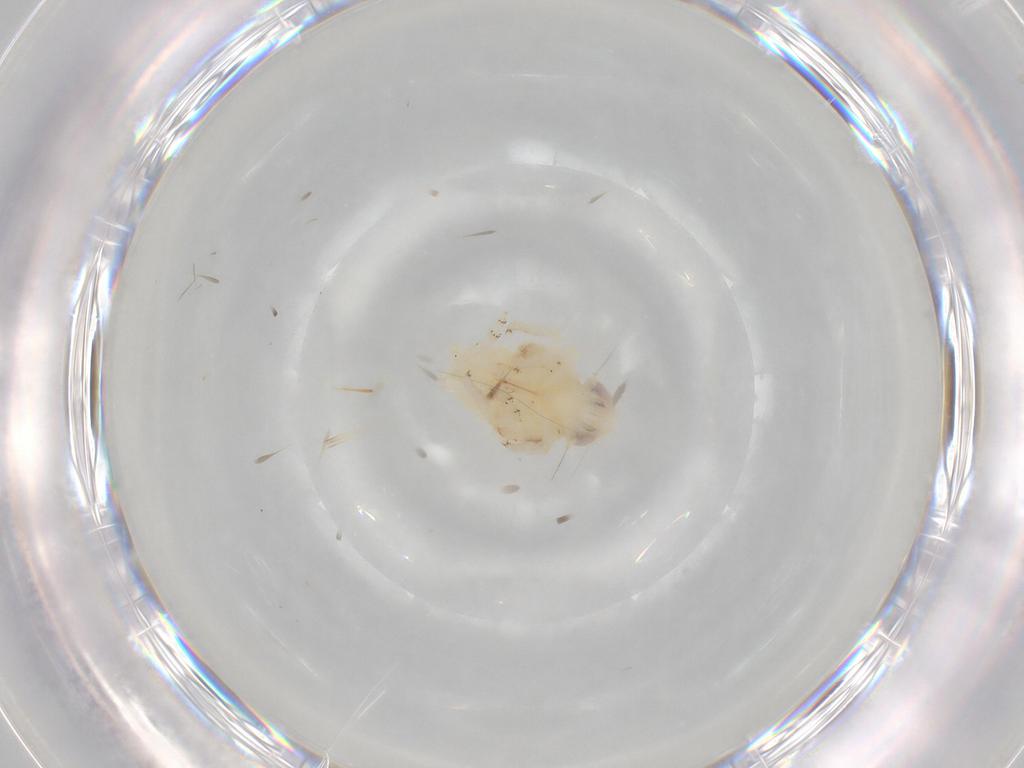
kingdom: Animalia
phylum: Arthropoda
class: Insecta
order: Hemiptera
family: Nogodinidae
